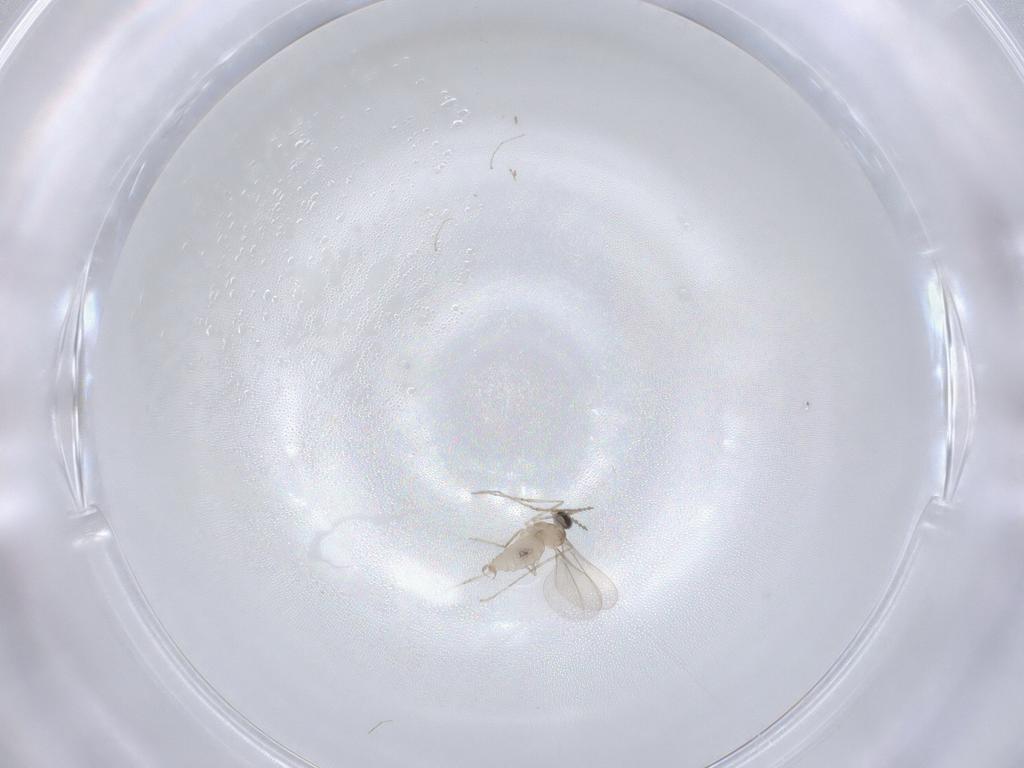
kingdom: Animalia
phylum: Arthropoda
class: Insecta
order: Diptera
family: Cecidomyiidae
